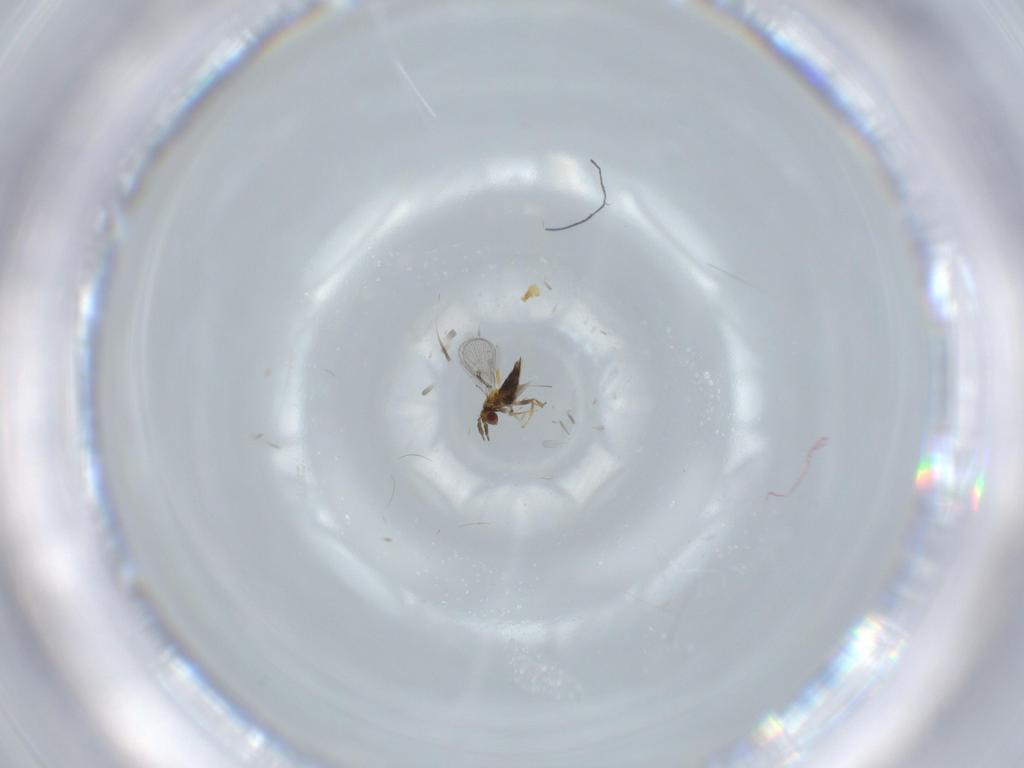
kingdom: Animalia
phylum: Arthropoda
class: Insecta
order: Hymenoptera
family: Trichogrammatidae
